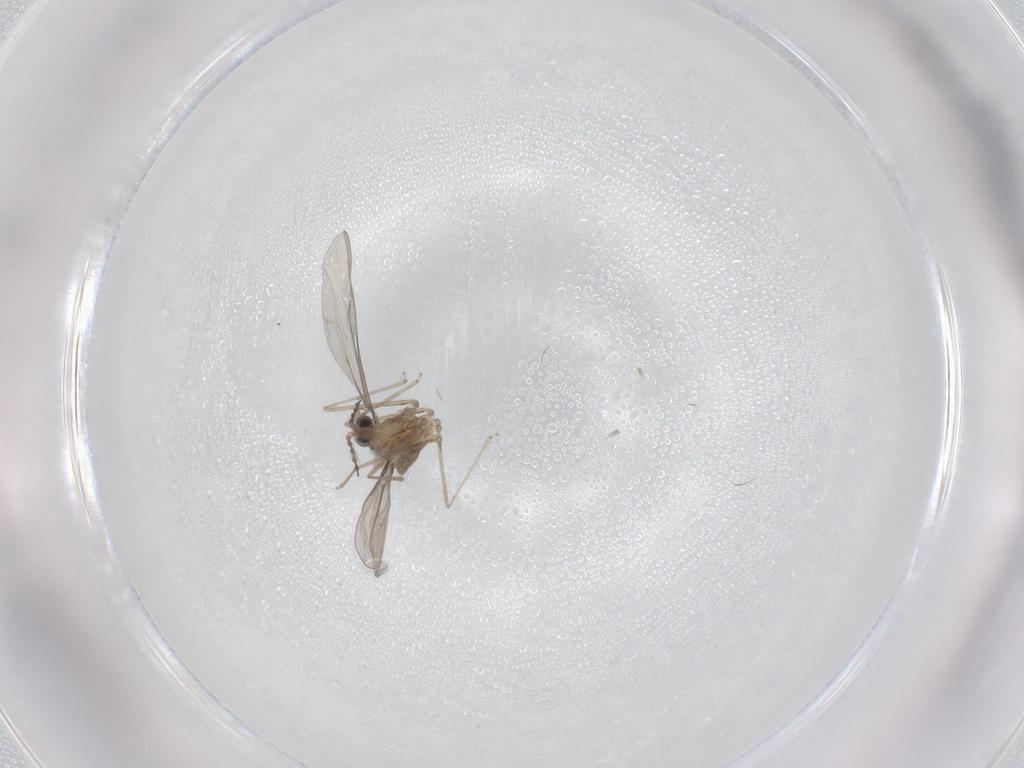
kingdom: Animalia
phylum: Arthropoda
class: Insecta
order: Diptera
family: Cecidomyiidae
